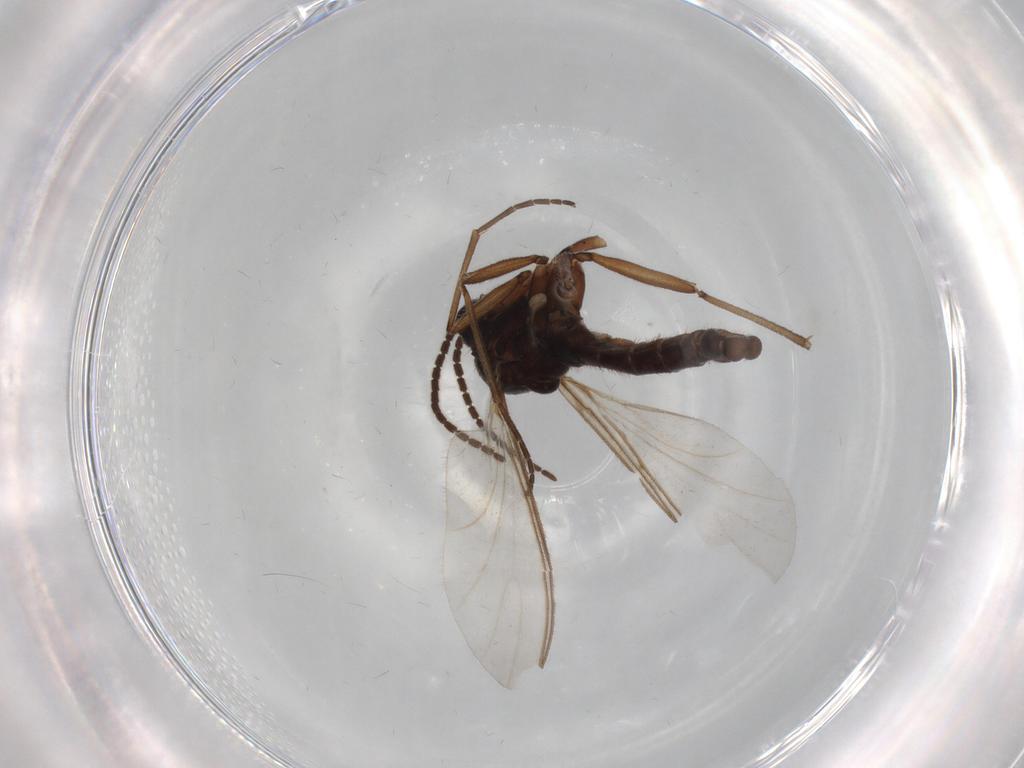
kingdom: Animalia
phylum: Arthropoda
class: Insecta
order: Diptera
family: Sciaridae
